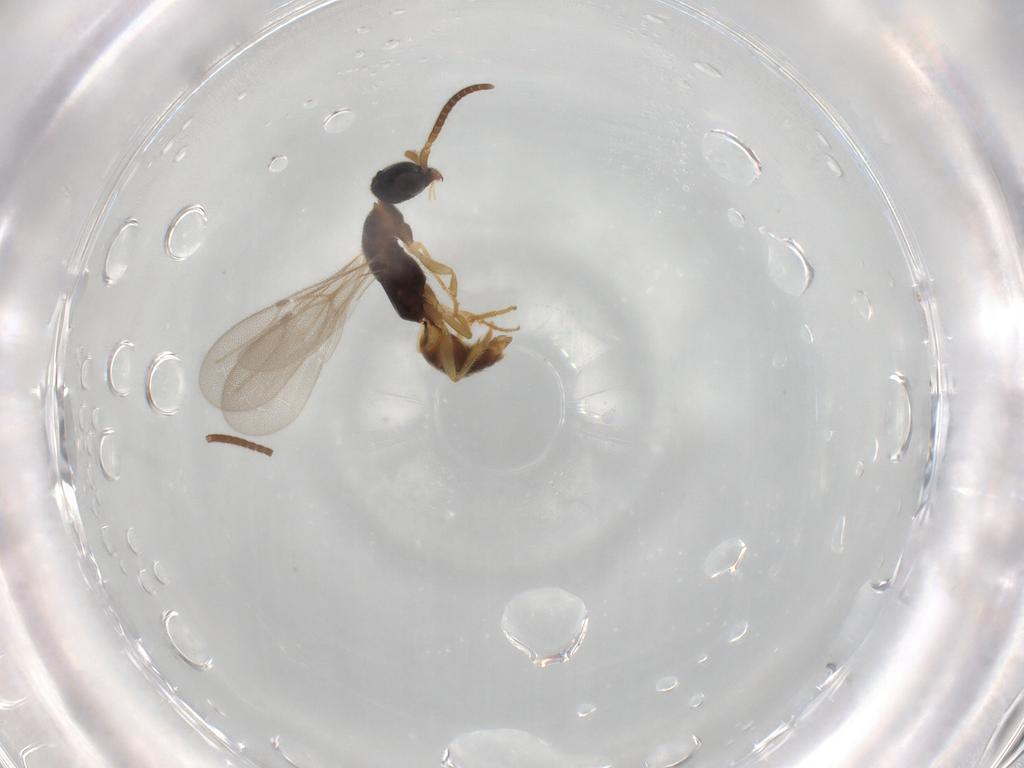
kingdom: Animalia
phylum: Arthropoda
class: Insecta
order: Hymenoptera
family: Bethylidae
